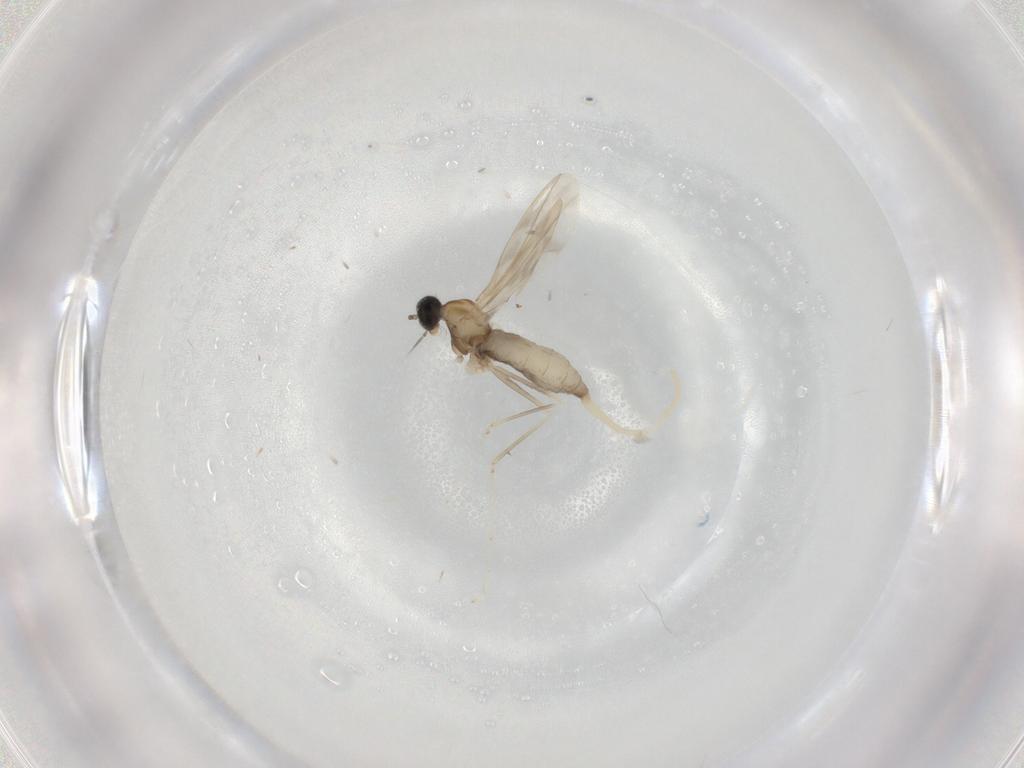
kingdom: Animalia
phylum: Arthropoda
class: Insecta
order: Diptera
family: Cecidomyiidae
